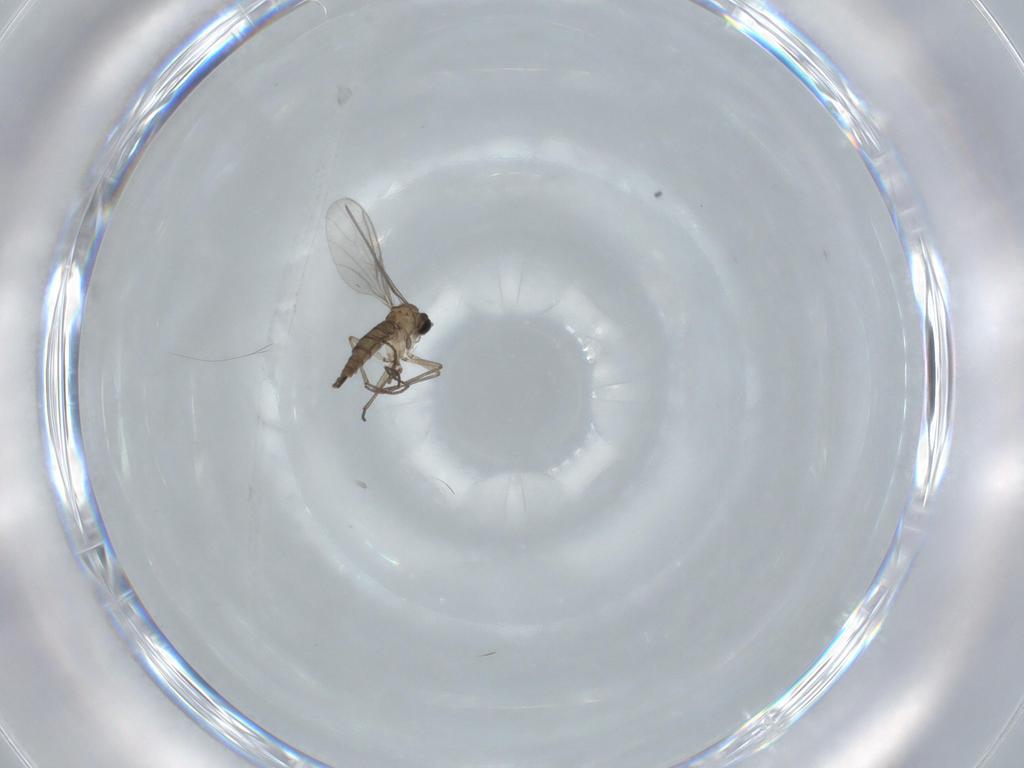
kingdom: Animalia
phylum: Arthropoda
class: Insecta
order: Diptera
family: Sciaridae
